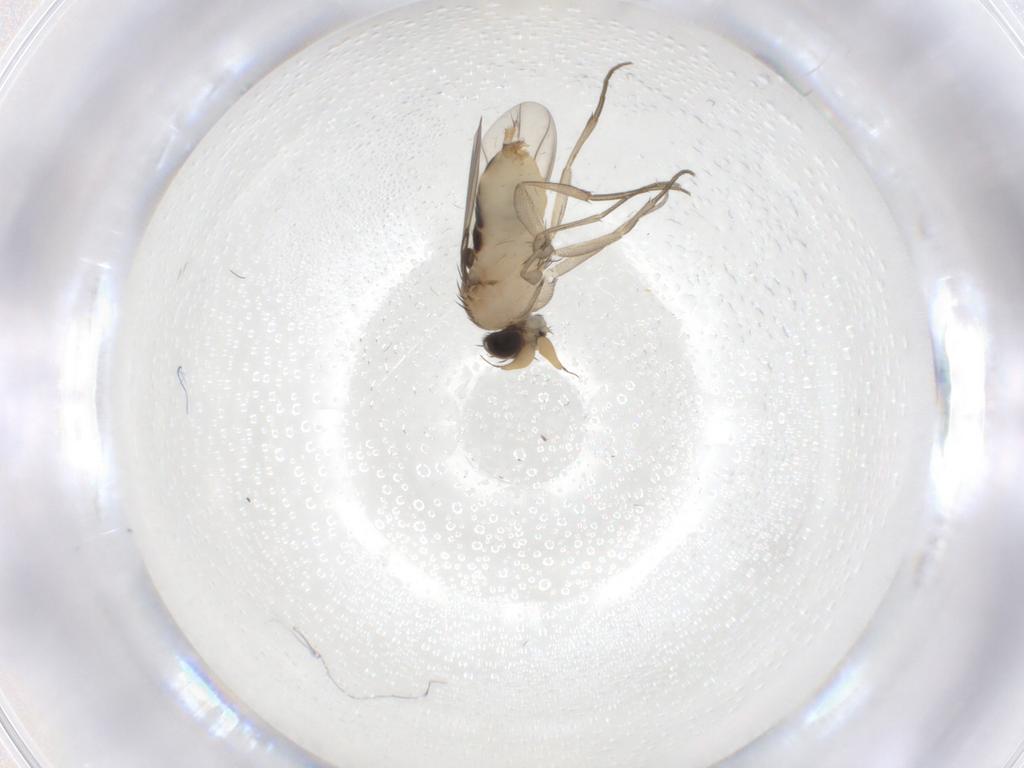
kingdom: Animalia
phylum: Arthropoda
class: Insecta
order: Diptera
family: Phoridae
